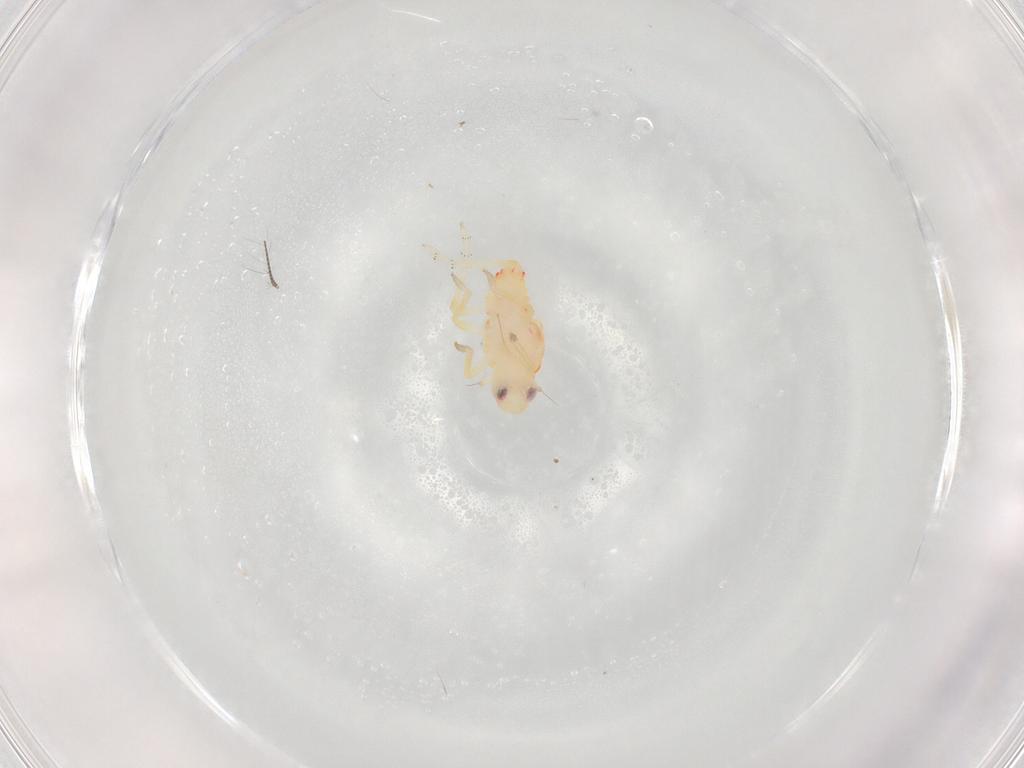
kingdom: Animalia
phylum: Arthropoda
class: Insecta
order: Hemiptera
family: Tropiduchidae
